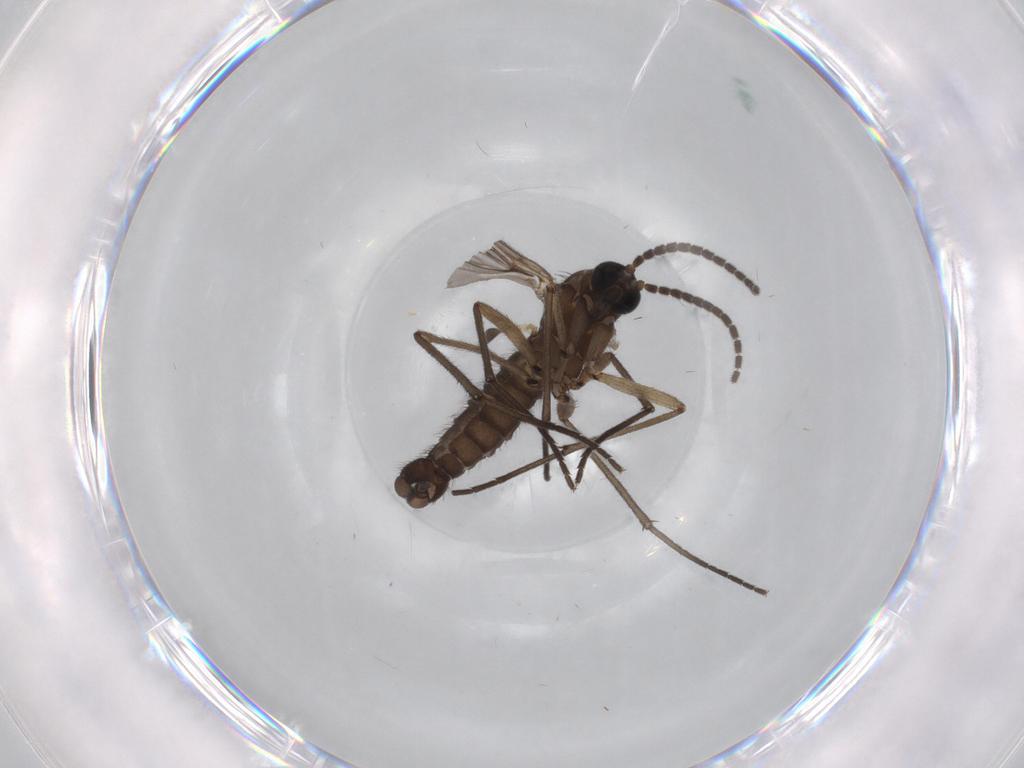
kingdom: Animalia
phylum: Arthropoda
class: Insecta
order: Diptera
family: Sciaridae
